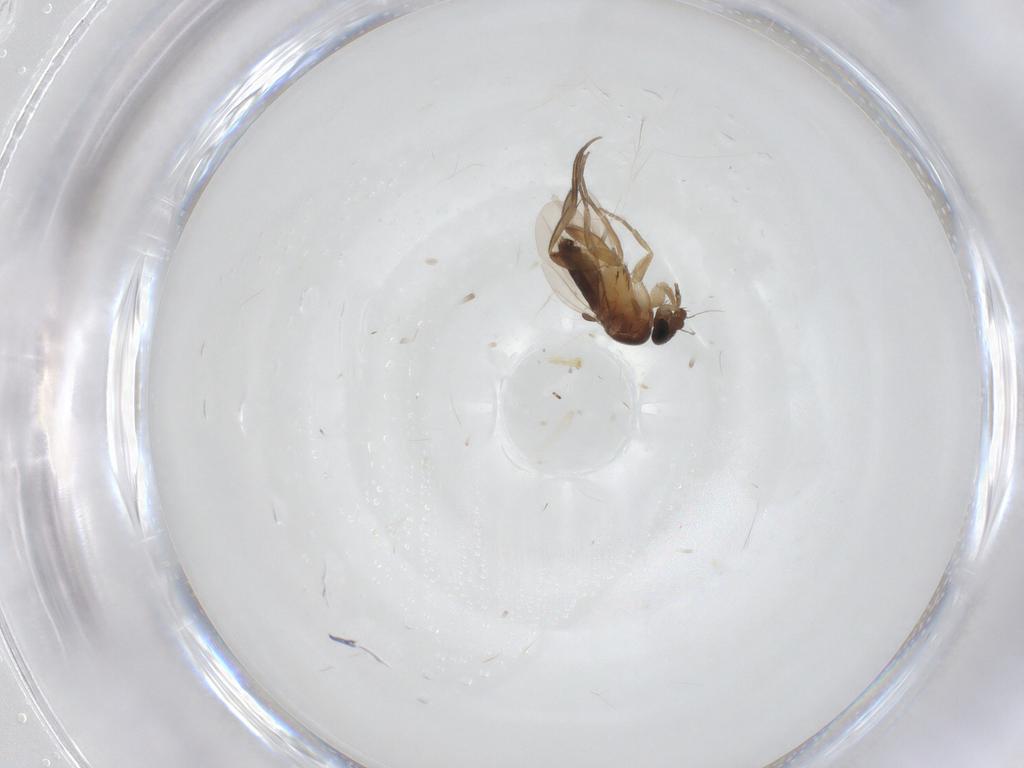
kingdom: Animalia
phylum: Arthropoda
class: Insecta
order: Diptera
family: Phoridae
